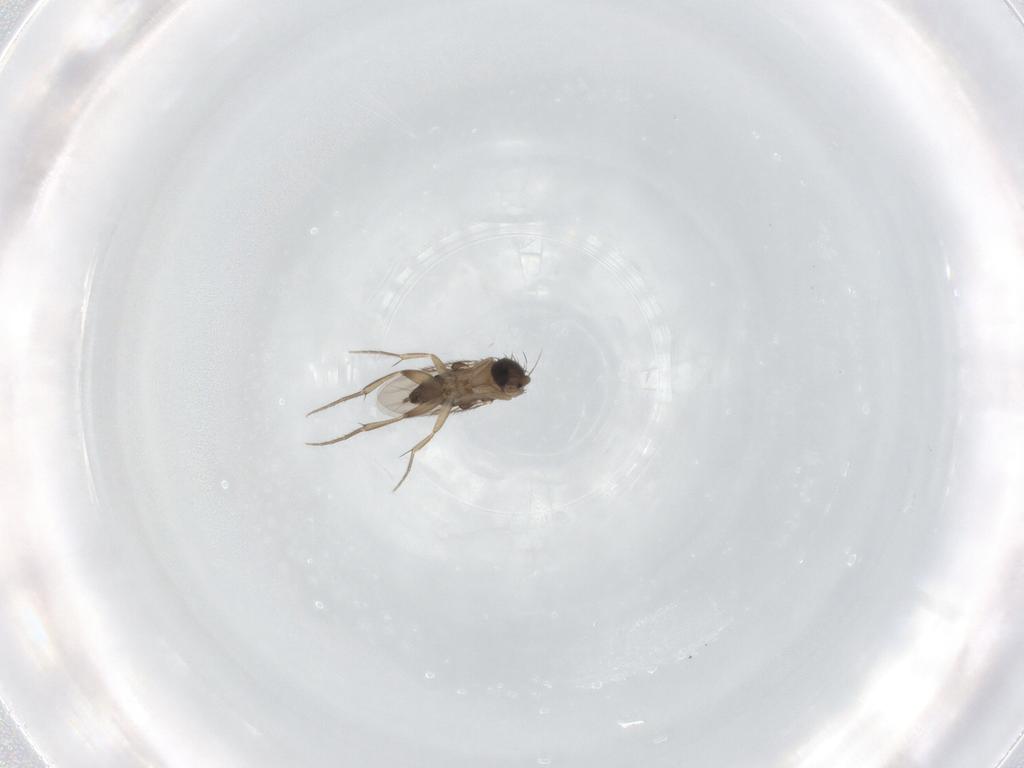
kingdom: Animalia
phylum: Arthropoda
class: Insecta
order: Diptera
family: Phoridae
